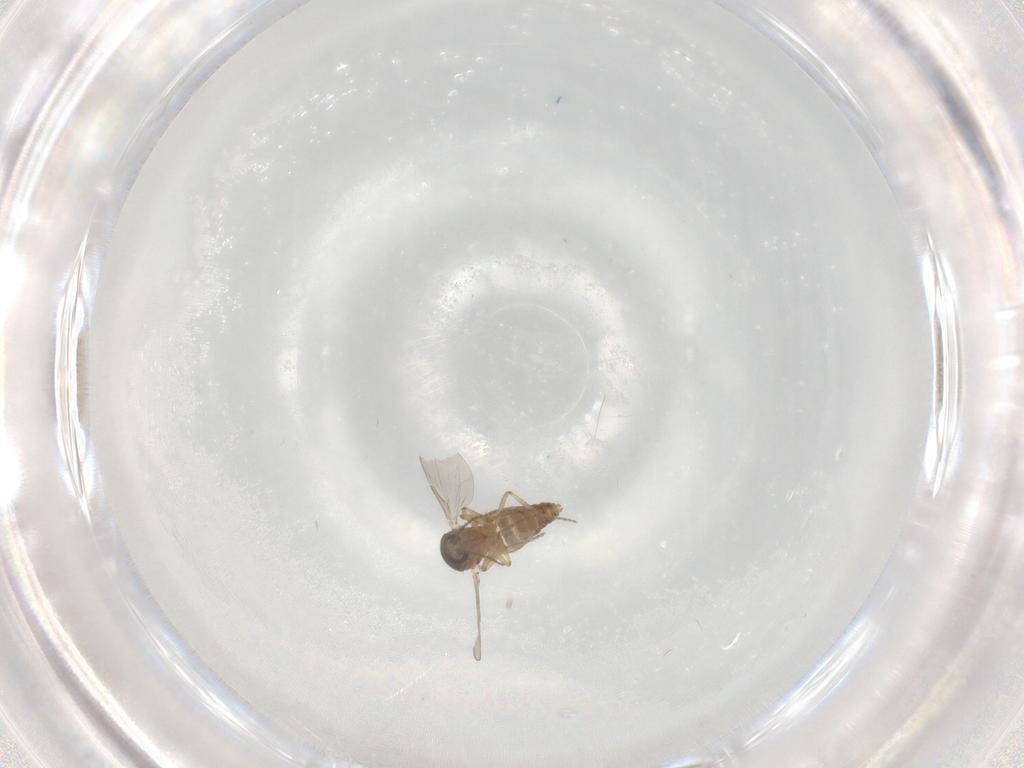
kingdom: Animalia
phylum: Arthropoda
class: Insecta
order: Diptera
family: Ceratopogonidae
